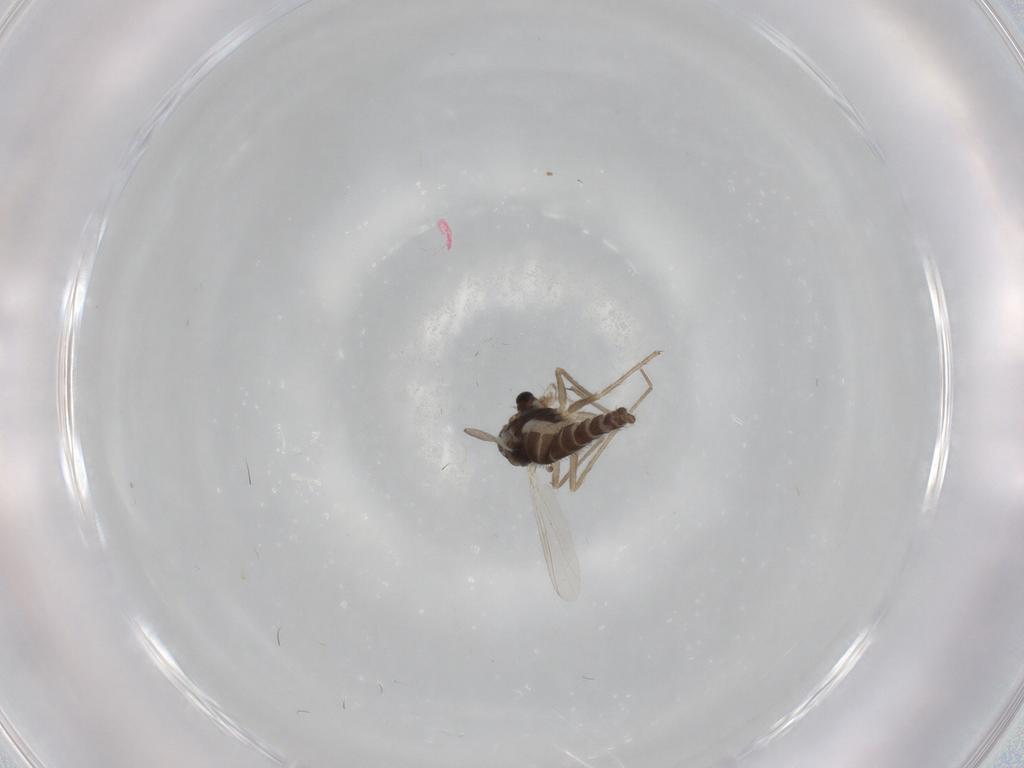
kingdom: Animalia
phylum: Arthropoda
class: Insecta
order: Diptera
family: Chironomidae
